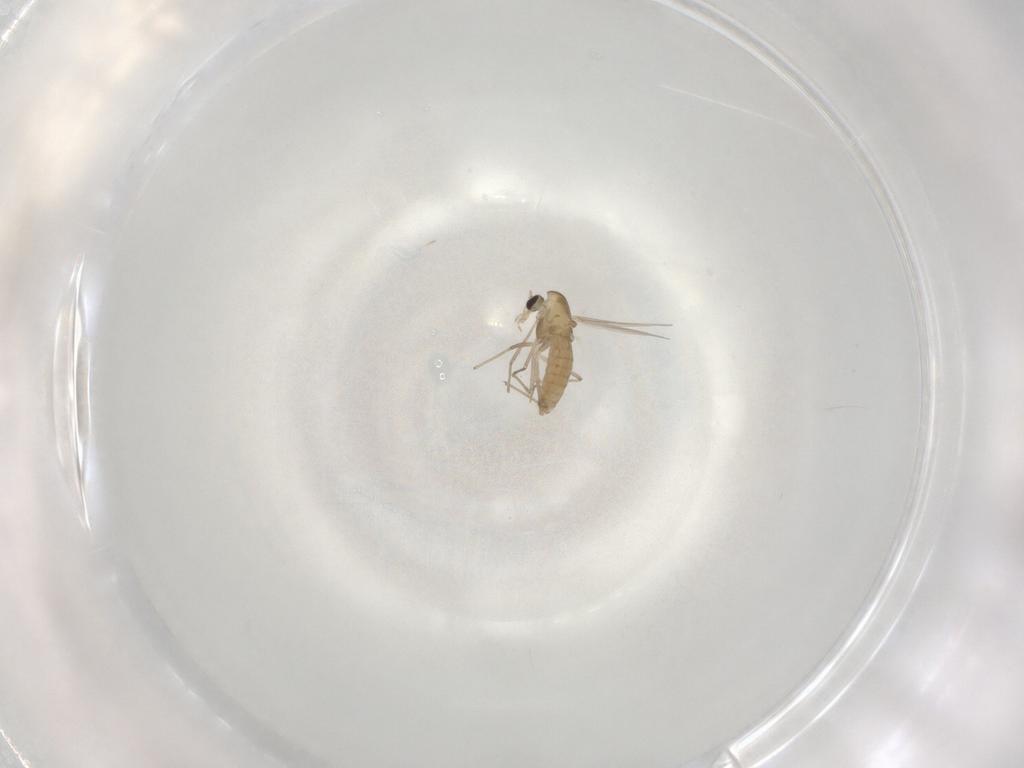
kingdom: Animalia
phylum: Arthropoda
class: Insecta
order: Diptera
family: Chironomidae
